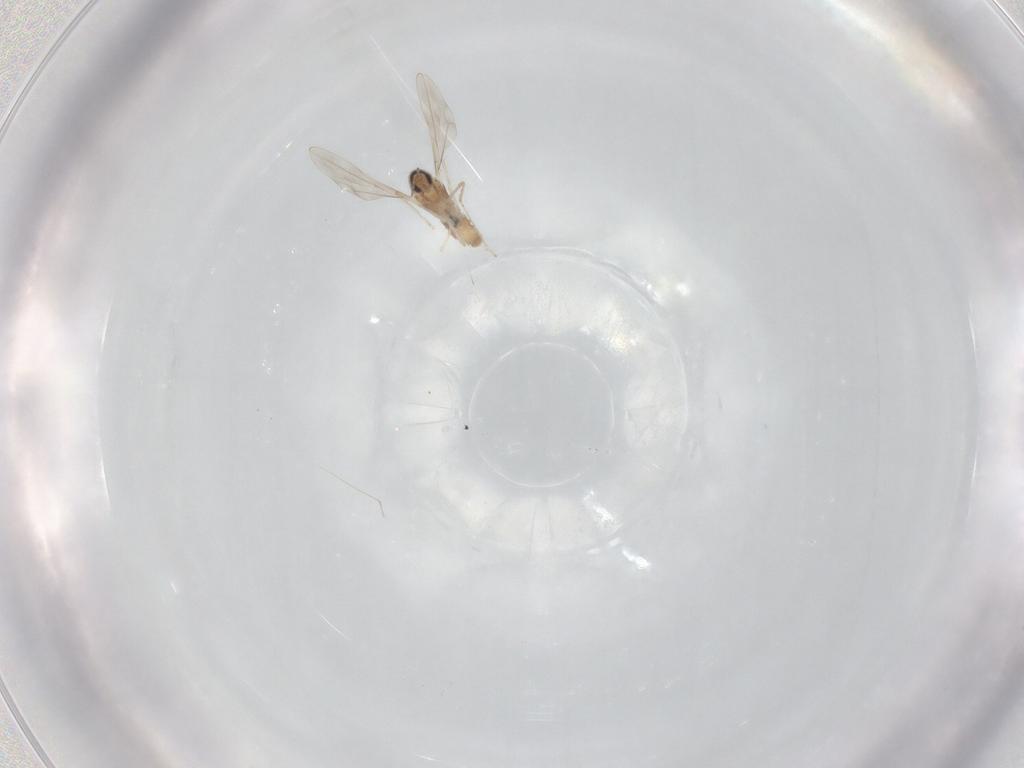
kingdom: Animalia
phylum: Arthropoda
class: Insecta
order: Diptera
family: Cecidomyiidae
